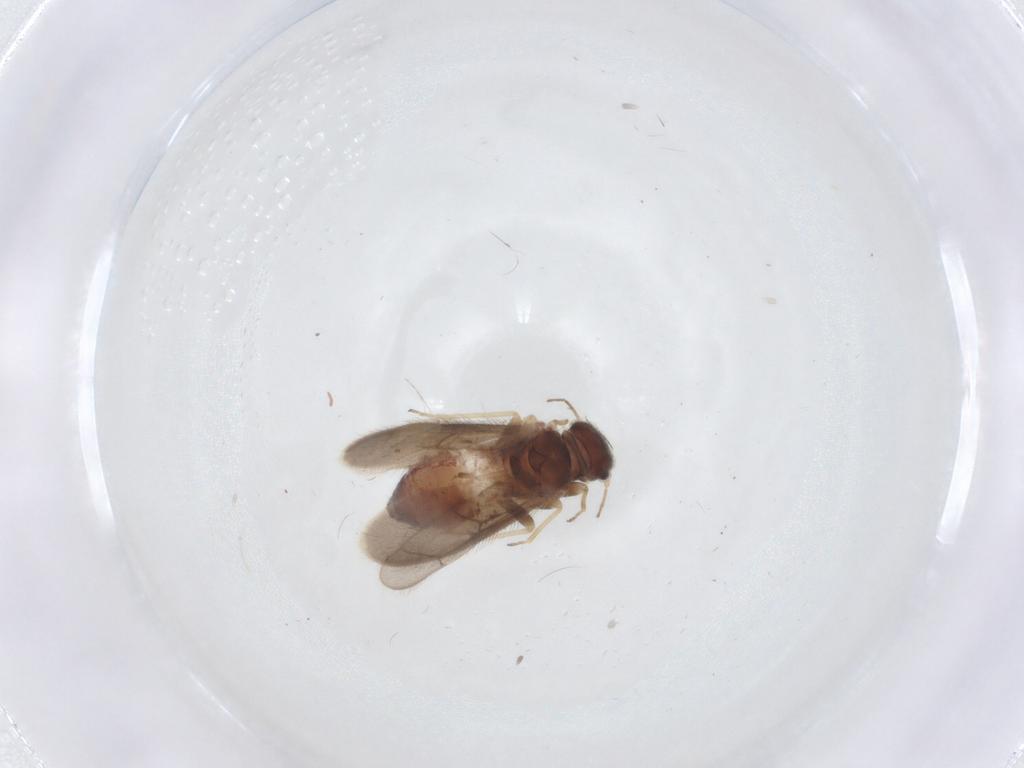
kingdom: Animalia
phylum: Arthropoda
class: Insecta
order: Psocodea
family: Archipsocidae
